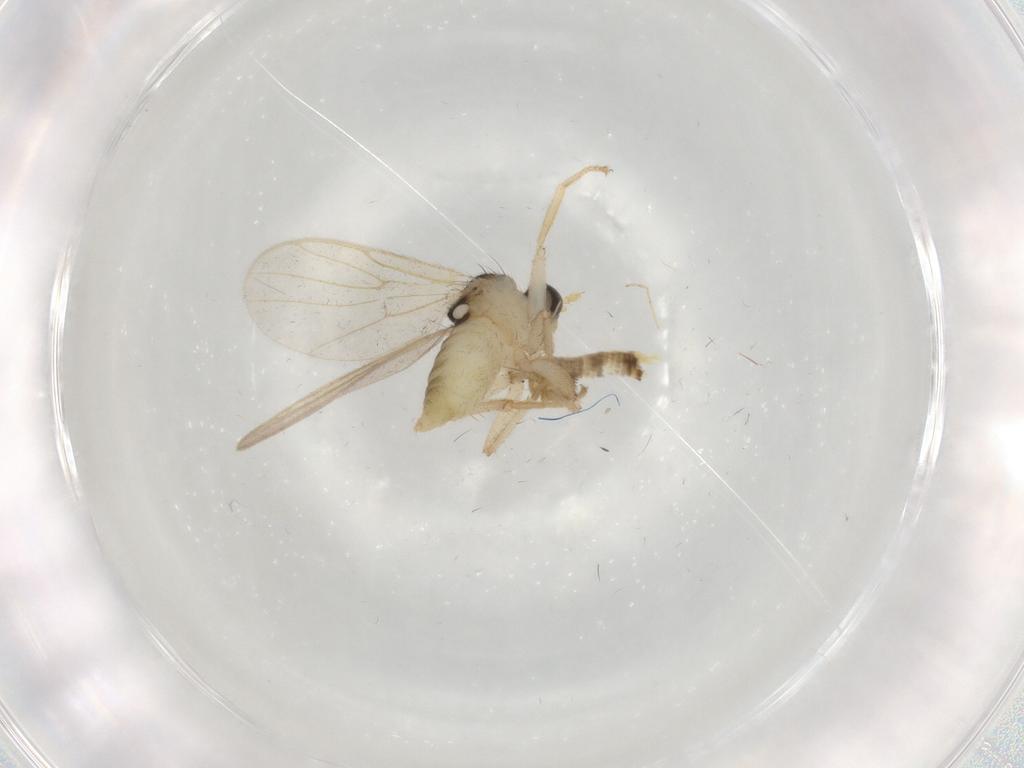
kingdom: Animalia
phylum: Arthropoda
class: Insecta
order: Diptera
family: Hybotidae
